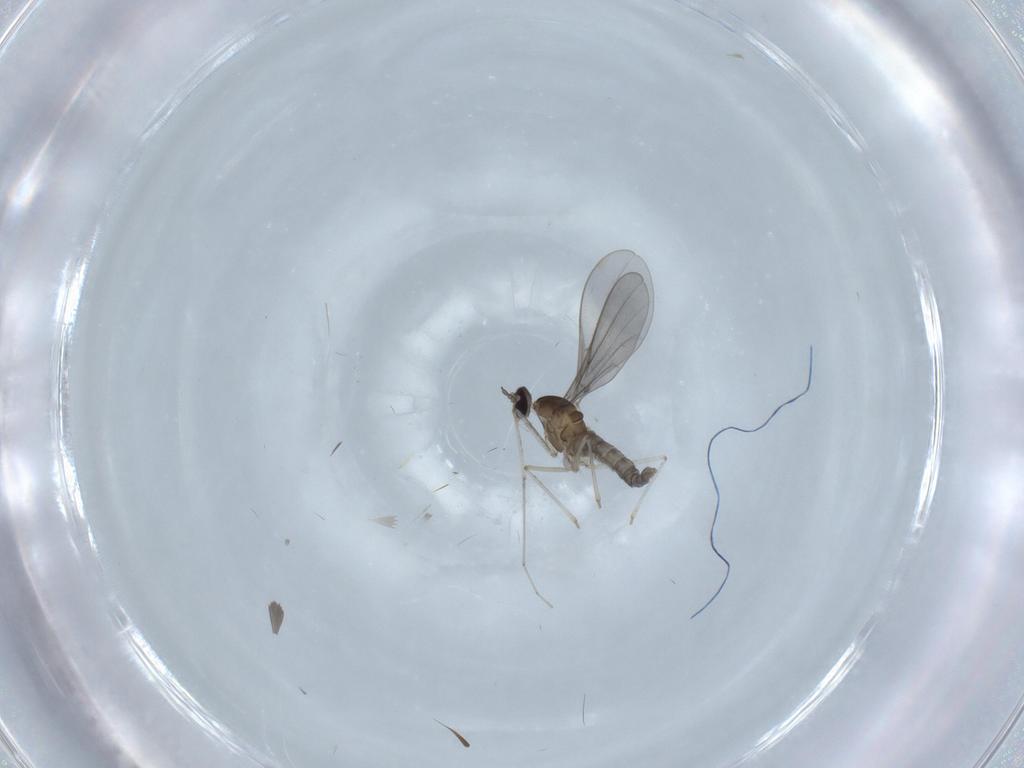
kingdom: Animalia
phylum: Arthropoda
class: Insecta
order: Diptera
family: Cecidomyiidae
